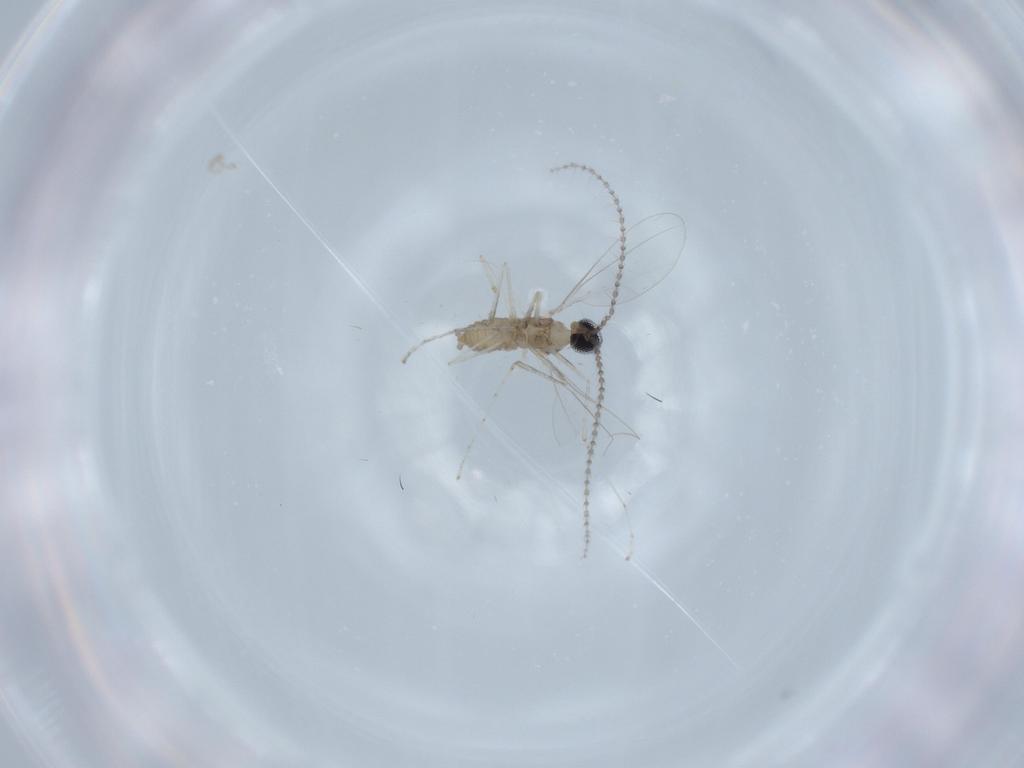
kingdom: Animalia
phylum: Arthropoda
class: Insecta
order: Diptera
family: Cecidomyiidae
